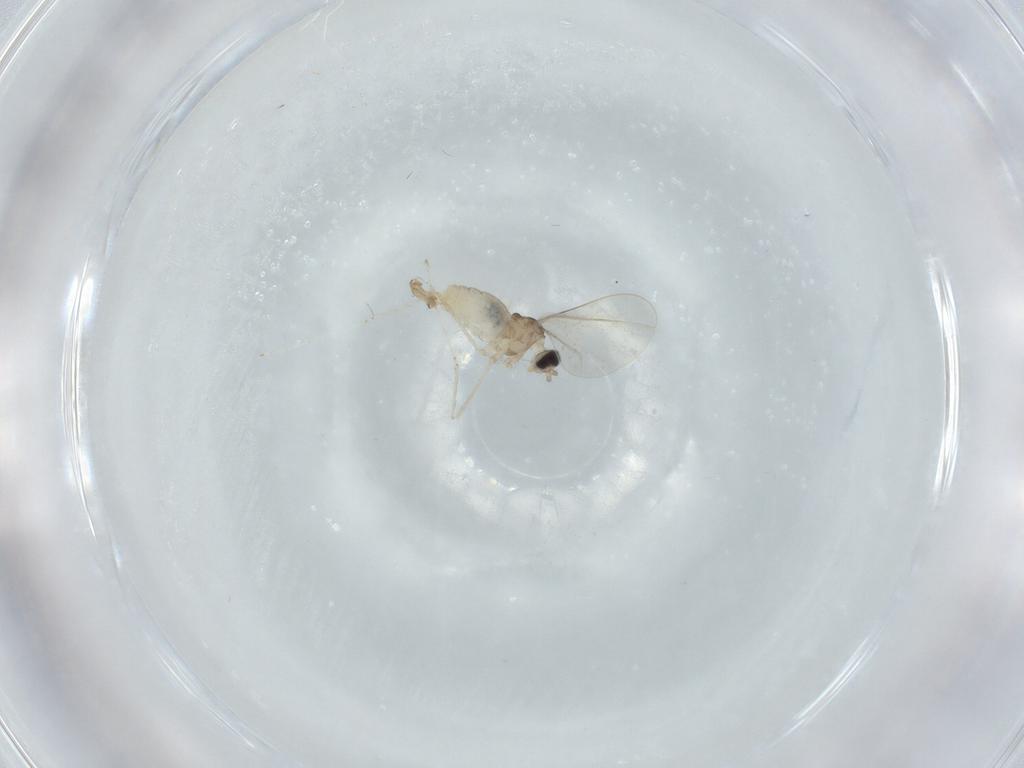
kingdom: Animalia
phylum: Arthropoda
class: Insecta
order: Diptera
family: Cecidomyiidae
